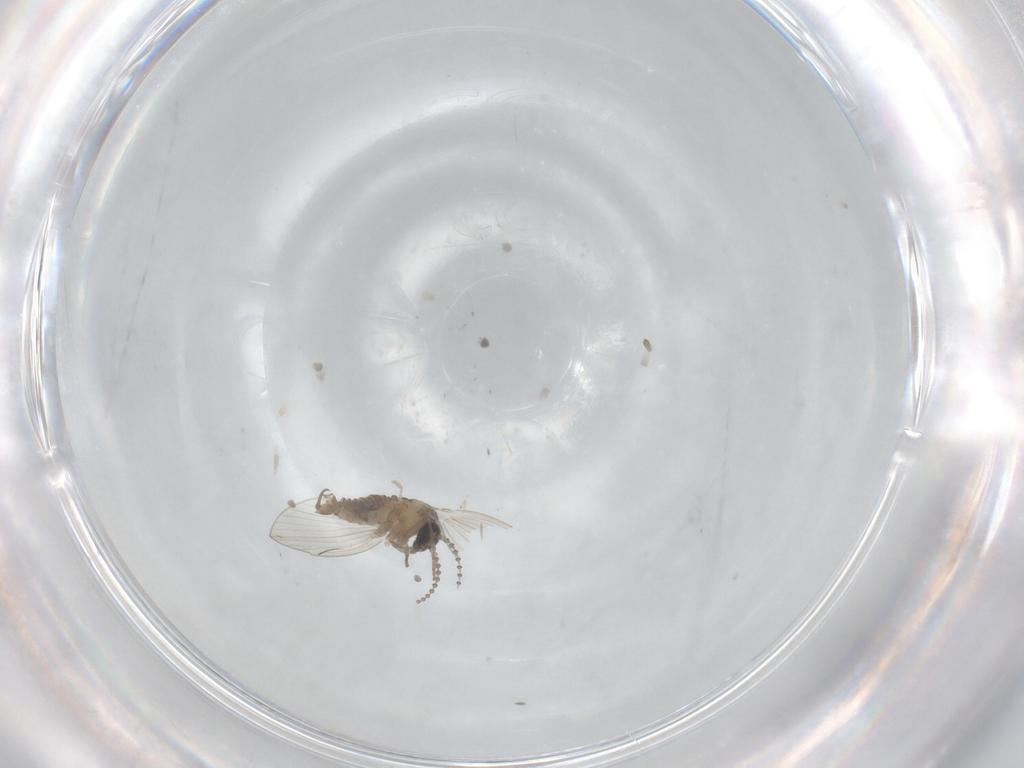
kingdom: Animalia
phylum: Arthropoda
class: Insecta
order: Diptera
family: Psychodidae
